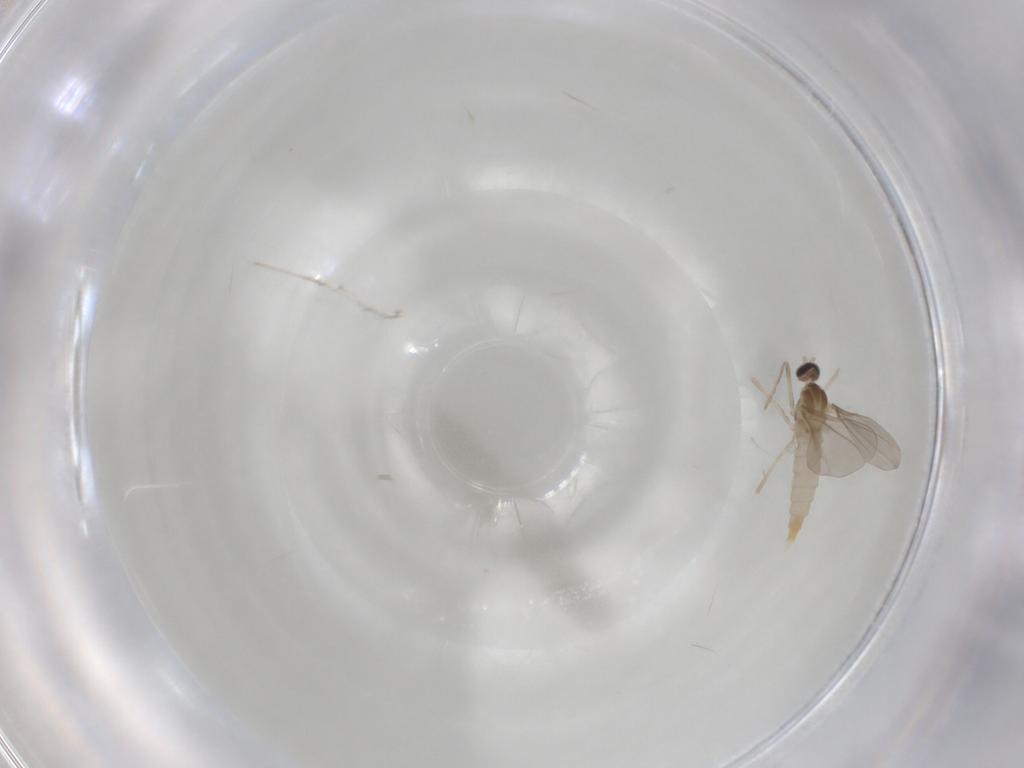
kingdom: Animalia
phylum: Arthropoda
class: Insecta
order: Diptera
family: Cecidomyiidae
